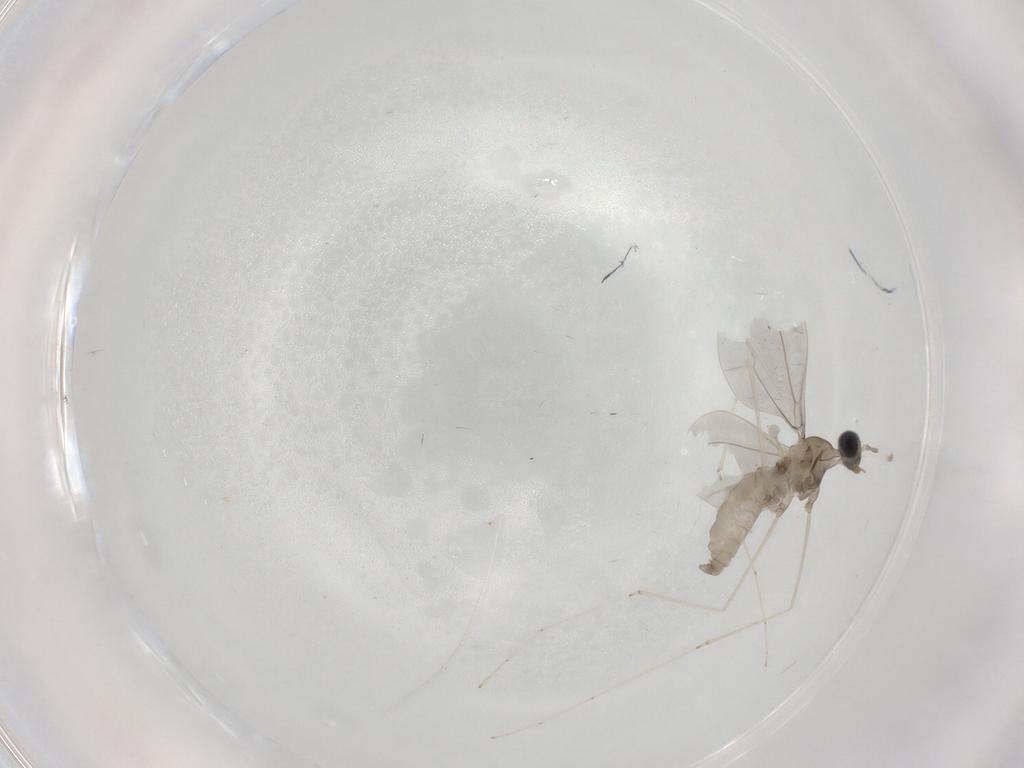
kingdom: Animalia
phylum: Arthropoda
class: Insecta
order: Diptera
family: Cecidomyiidae
